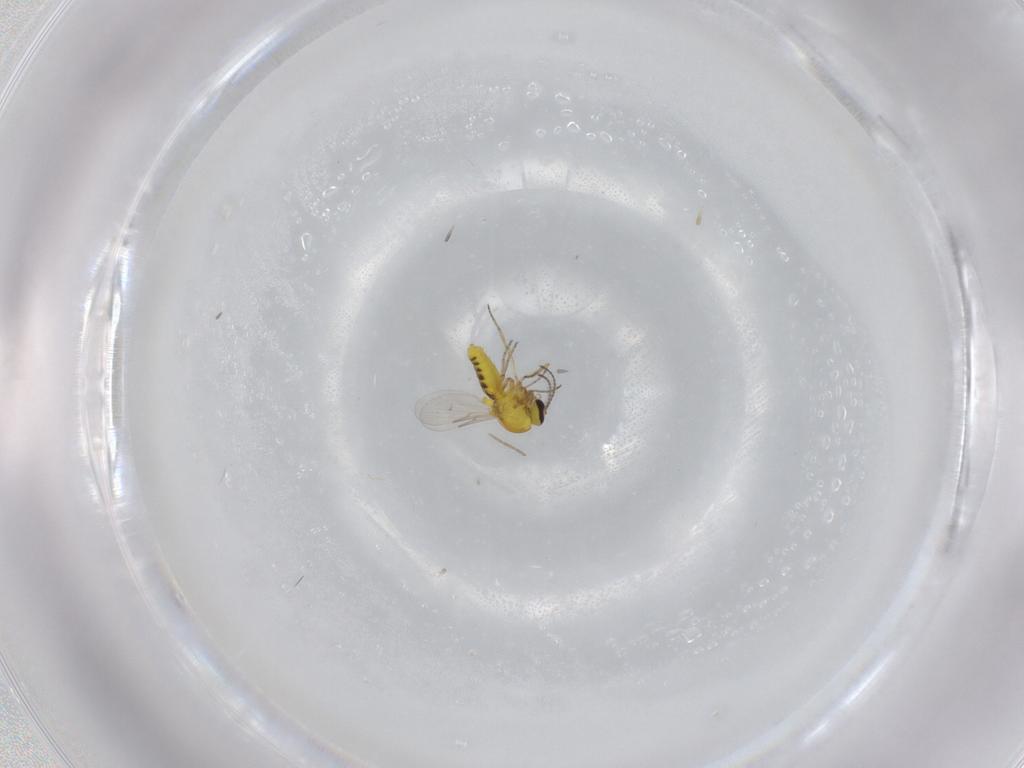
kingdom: Animalia
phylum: Arthropoda
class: Insecta
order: Diptera
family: Ceratopogonidae
